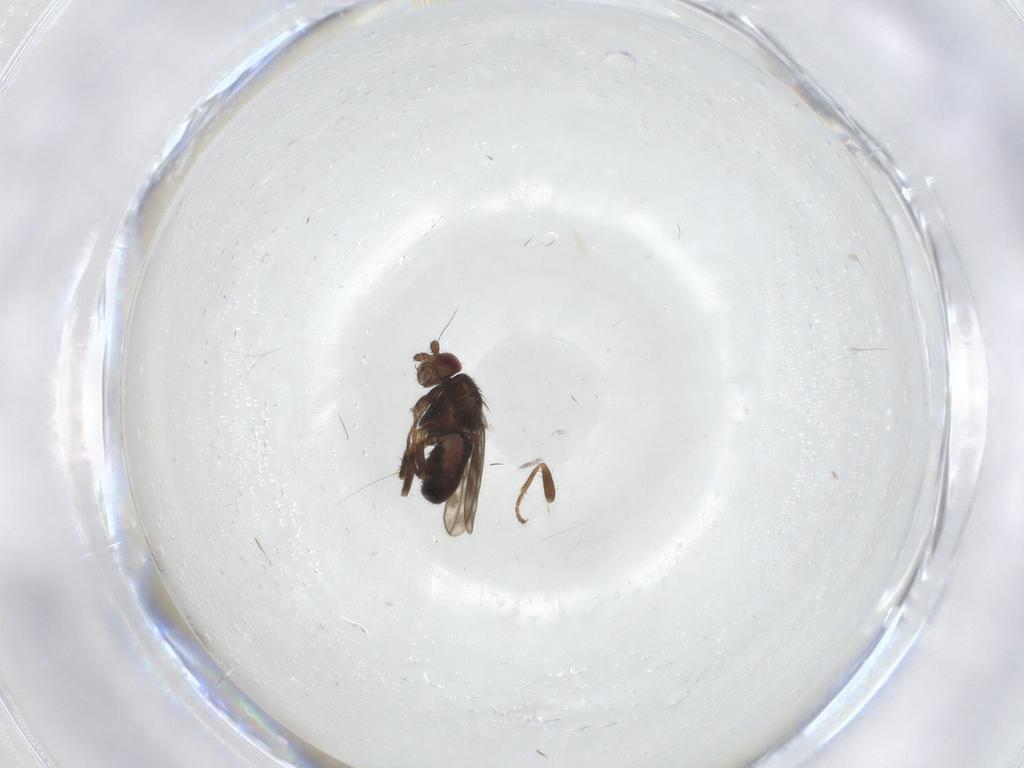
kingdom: Animalia
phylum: Arthropoda
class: Insecta
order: Diptera
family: Sphaeroceridae
